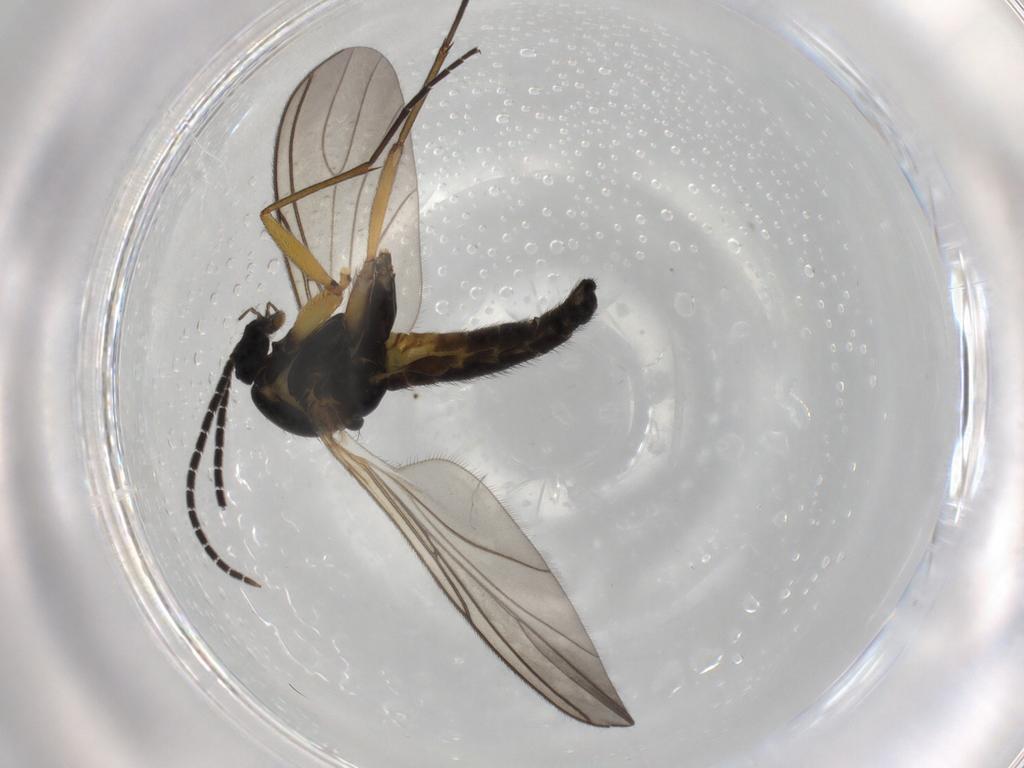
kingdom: Animalia
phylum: Arthropoda
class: Insecta
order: Diptera
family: Sciaridae
